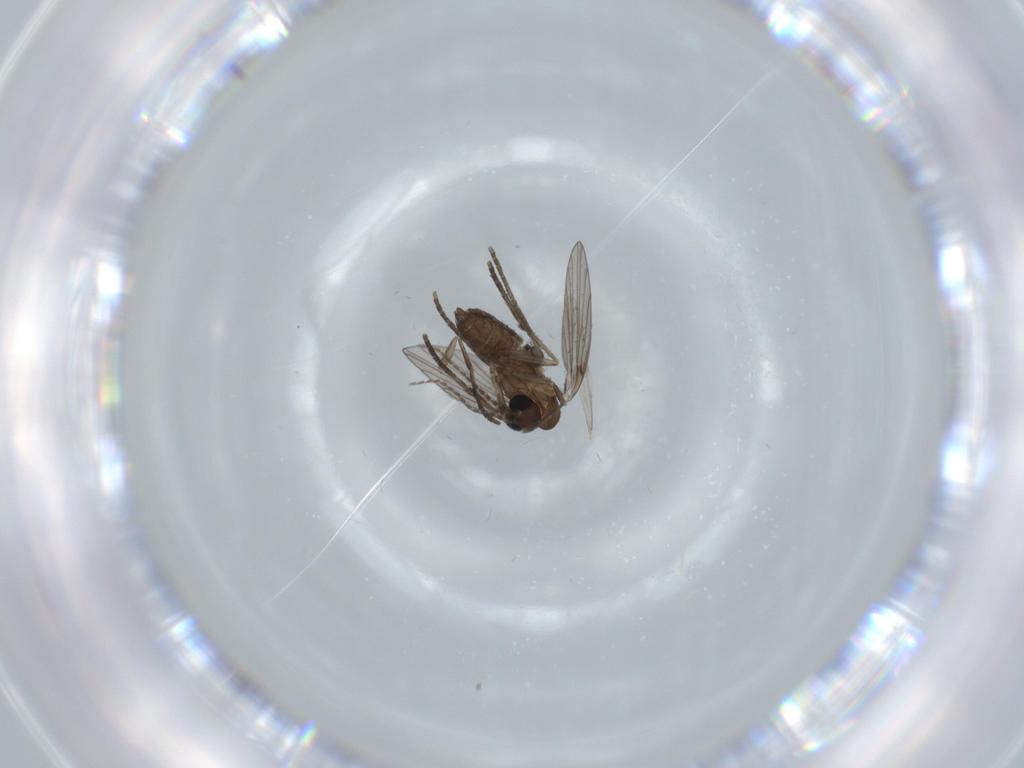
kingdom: Animalia
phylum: Arthropoda
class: Insecta
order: Diptera
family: Psychodidae
